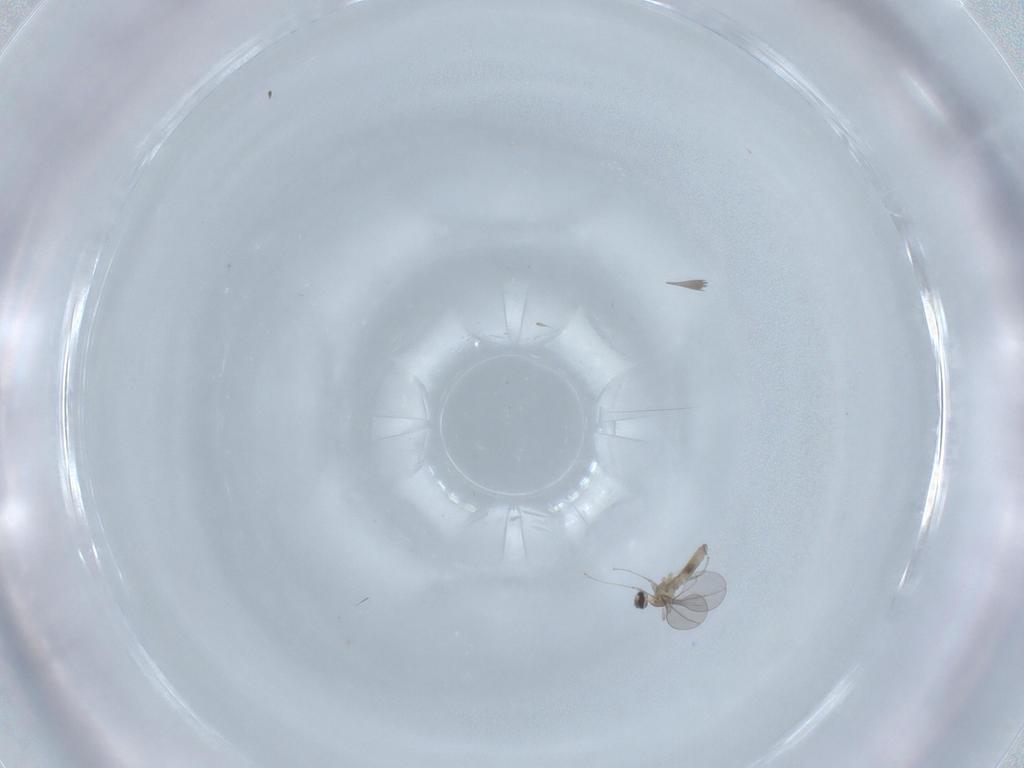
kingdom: Animalia
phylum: Arthropoda
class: Insecta
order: Diptera
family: Cecidomyiidae
